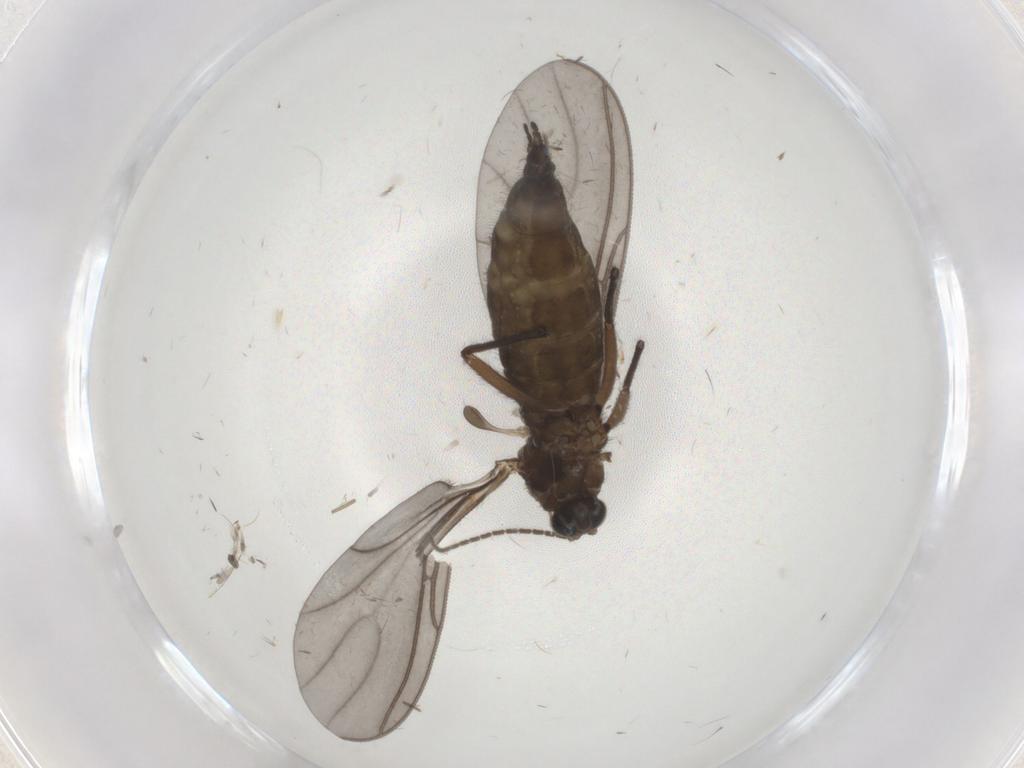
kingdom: Animalia
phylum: Arthropoda
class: Insecta
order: Diptera
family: Sciaridae
